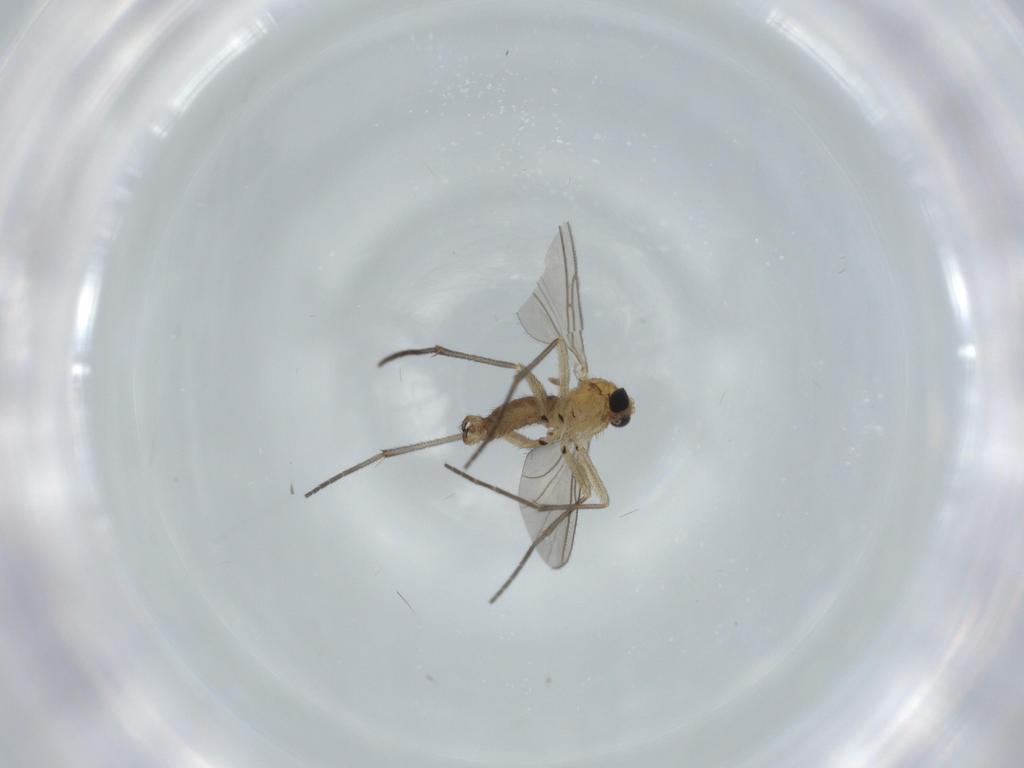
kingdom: Animalia
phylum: Arthropoda
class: Insecta
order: Diptera
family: Sciaridae
